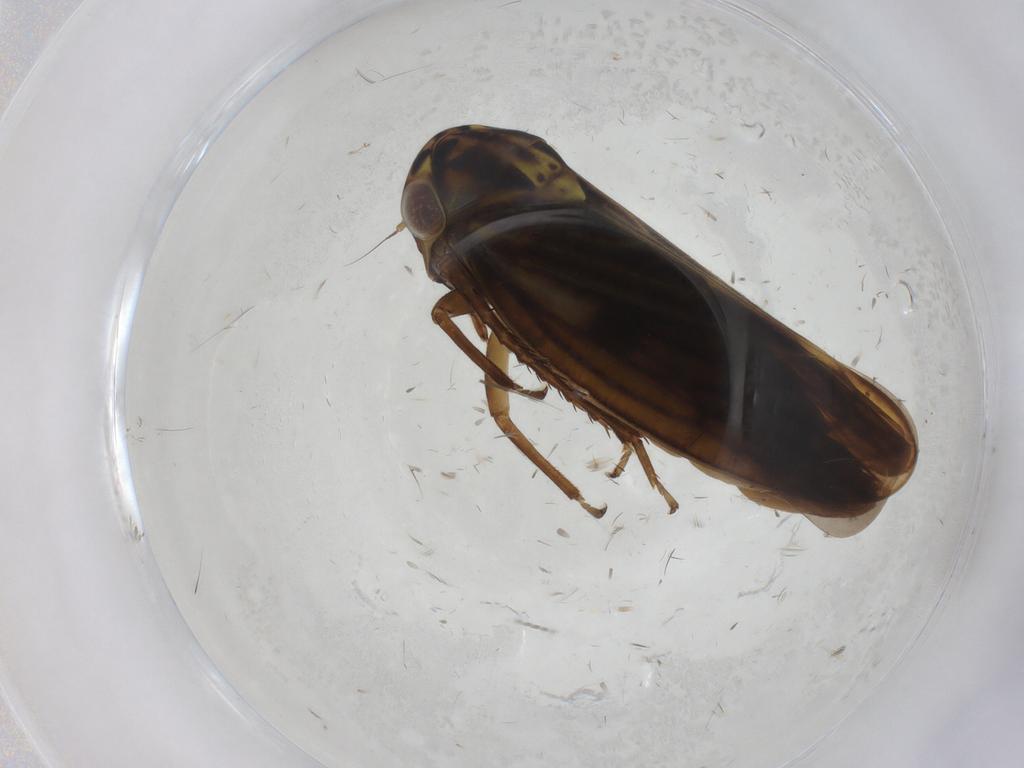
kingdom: Animalia
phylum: Arthropoda
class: Insecta
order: Hemiptera
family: Cicadellidae
